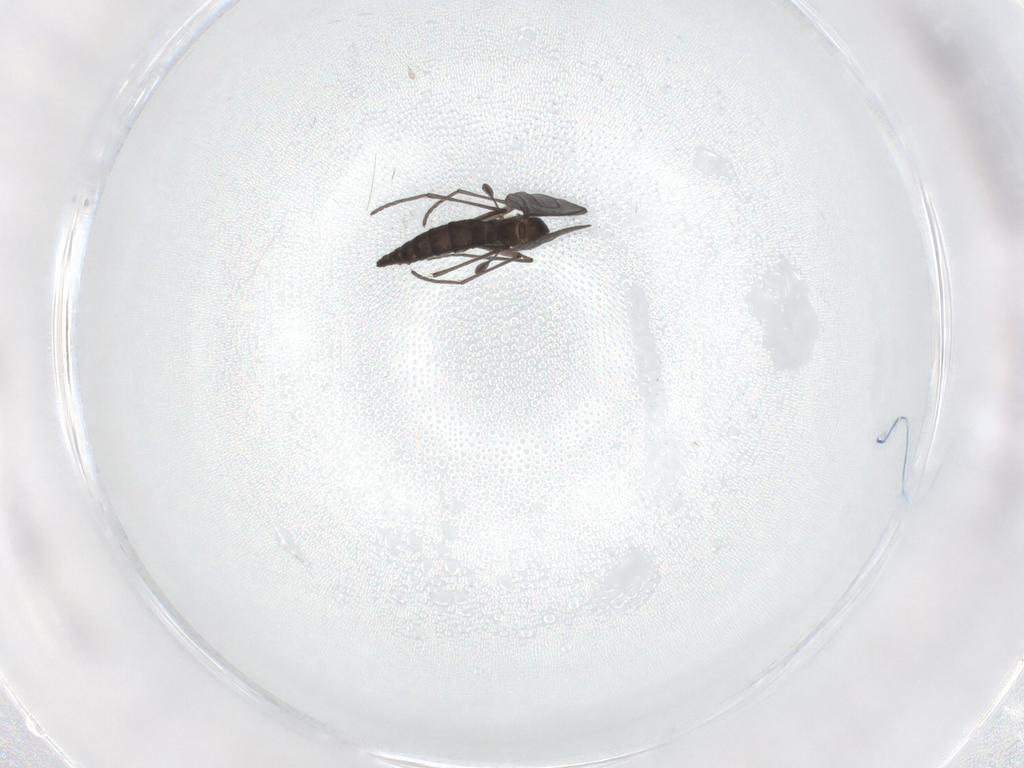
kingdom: Animalia
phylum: Arthropoda
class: Insecta
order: Diptera
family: Sciaridae
